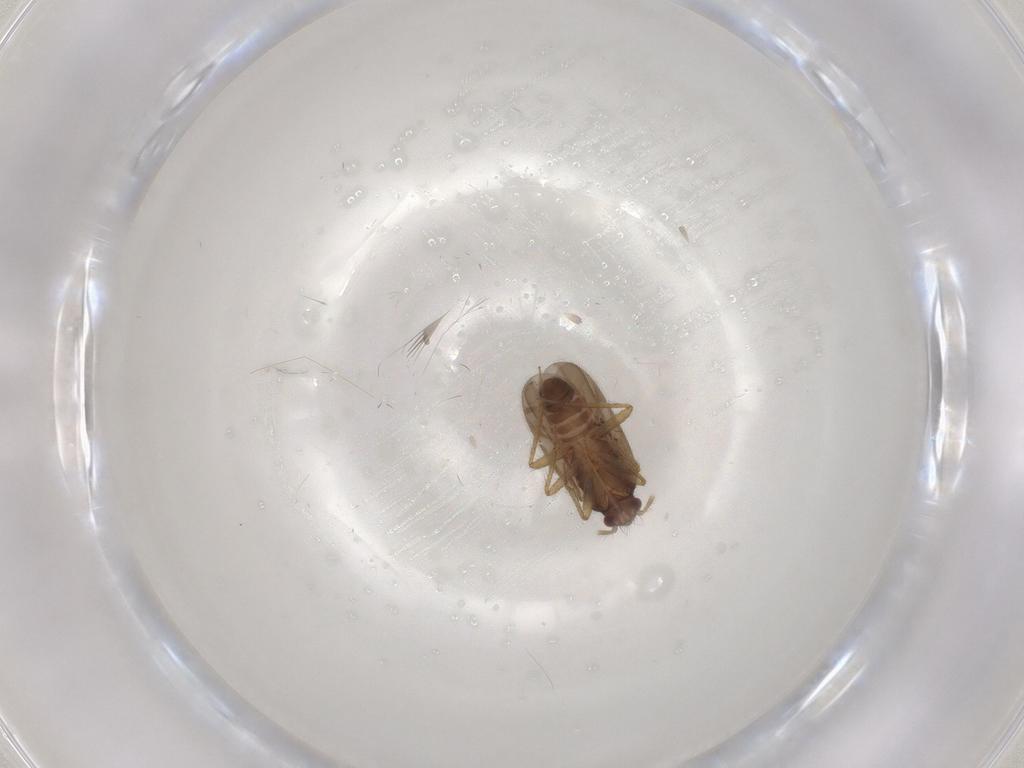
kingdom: Animalia
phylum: Arthropoda
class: Insecta
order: Hemiptera
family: Ceratocombidae
